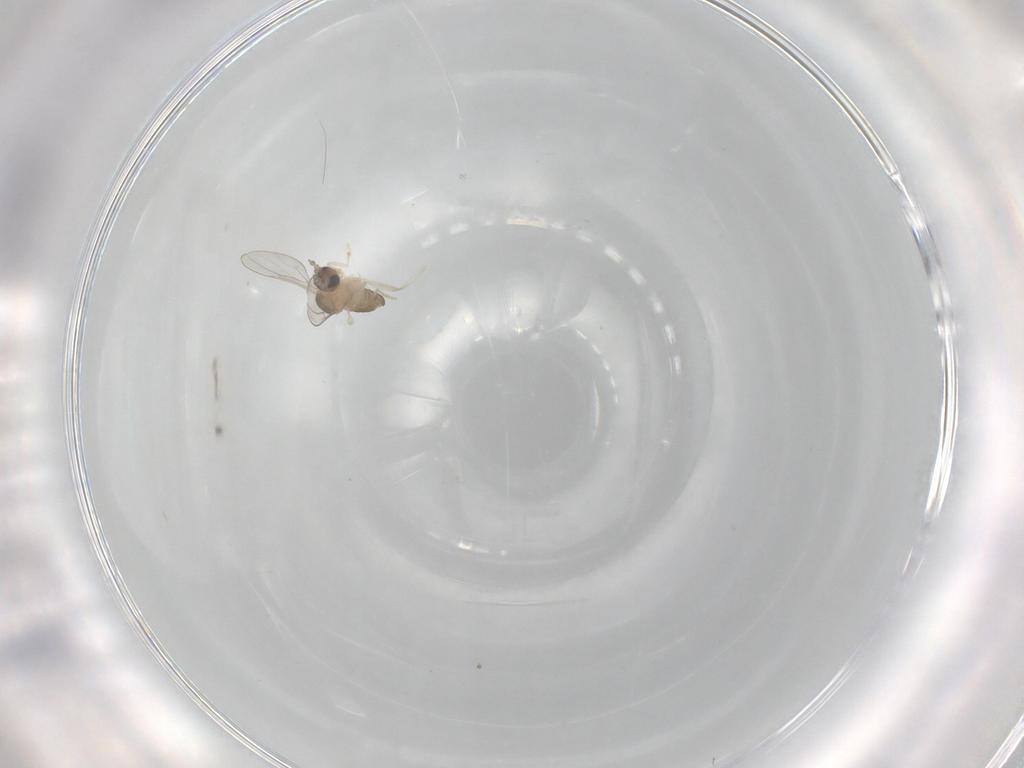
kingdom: Animalia
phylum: Arthropoda
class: Insecta
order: Diptera
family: Cecidomyiidae
